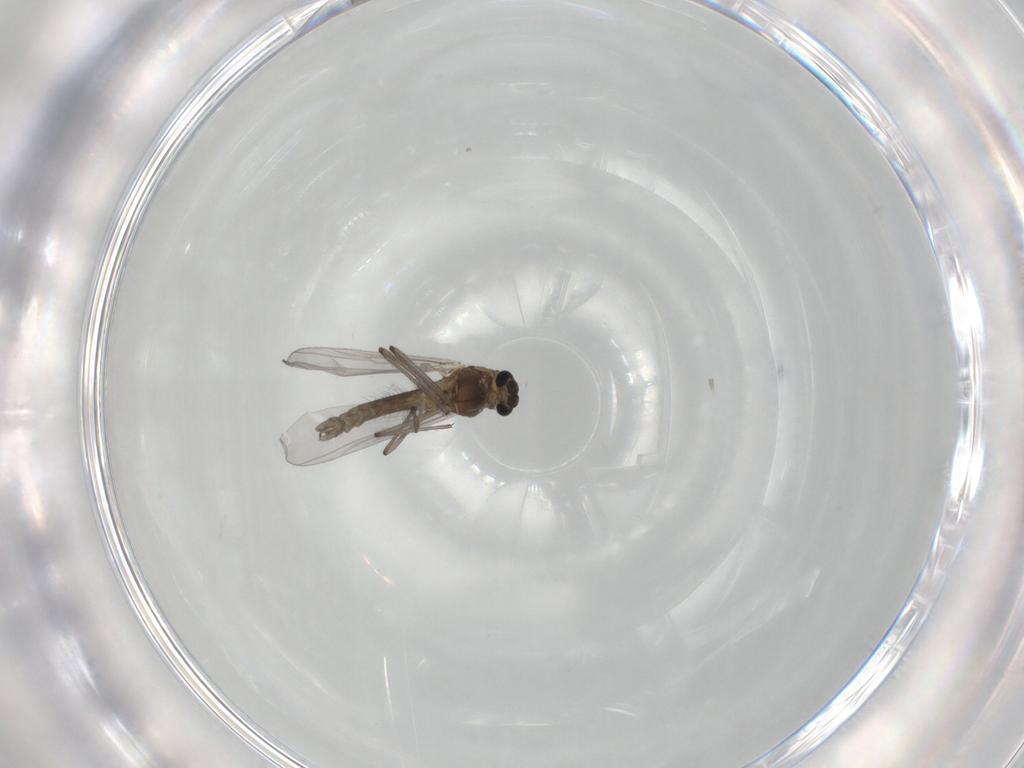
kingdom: Animalia
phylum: Arthropoda
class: Insecta
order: Diptera
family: Chironomidae
